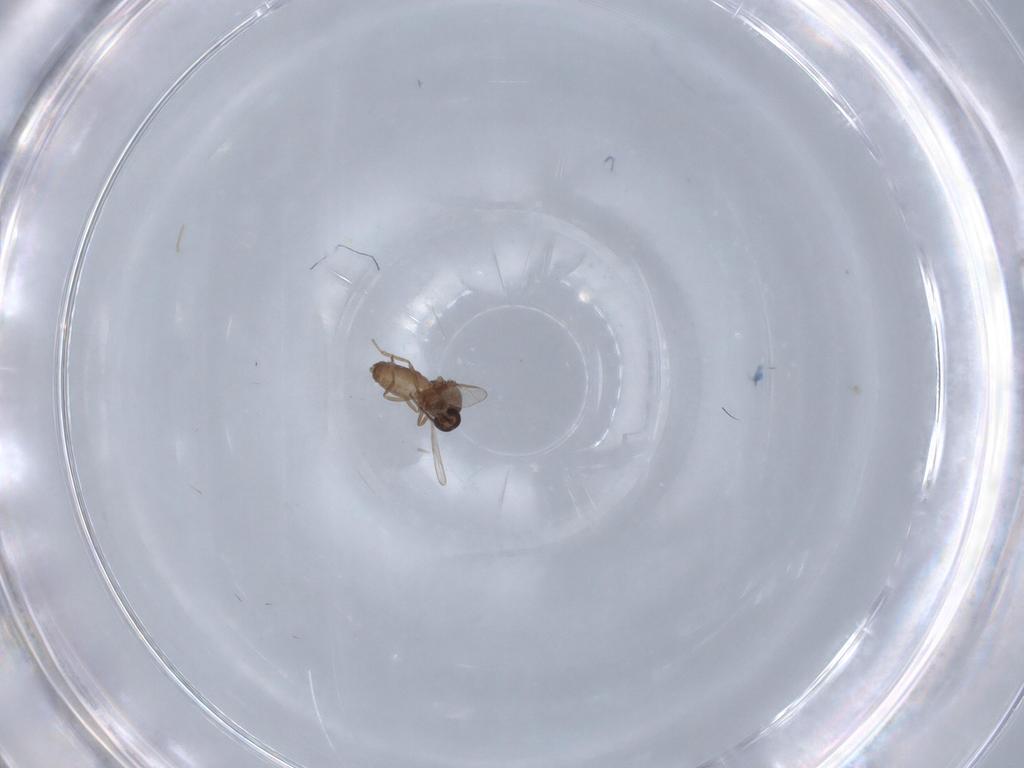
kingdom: Animalia
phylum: Arthropoda
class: Insecta
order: Diptera
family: Ceratopogonidae
